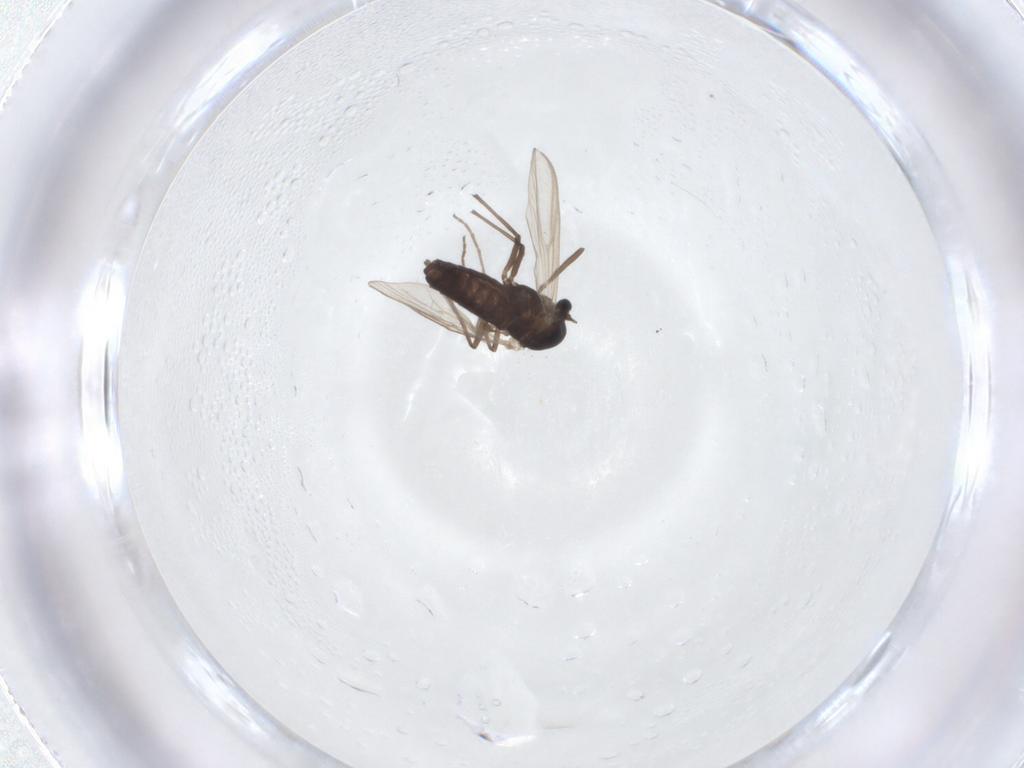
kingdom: Animalia
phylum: Arthropoda
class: Insecta
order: Diptera
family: Chironomidae
